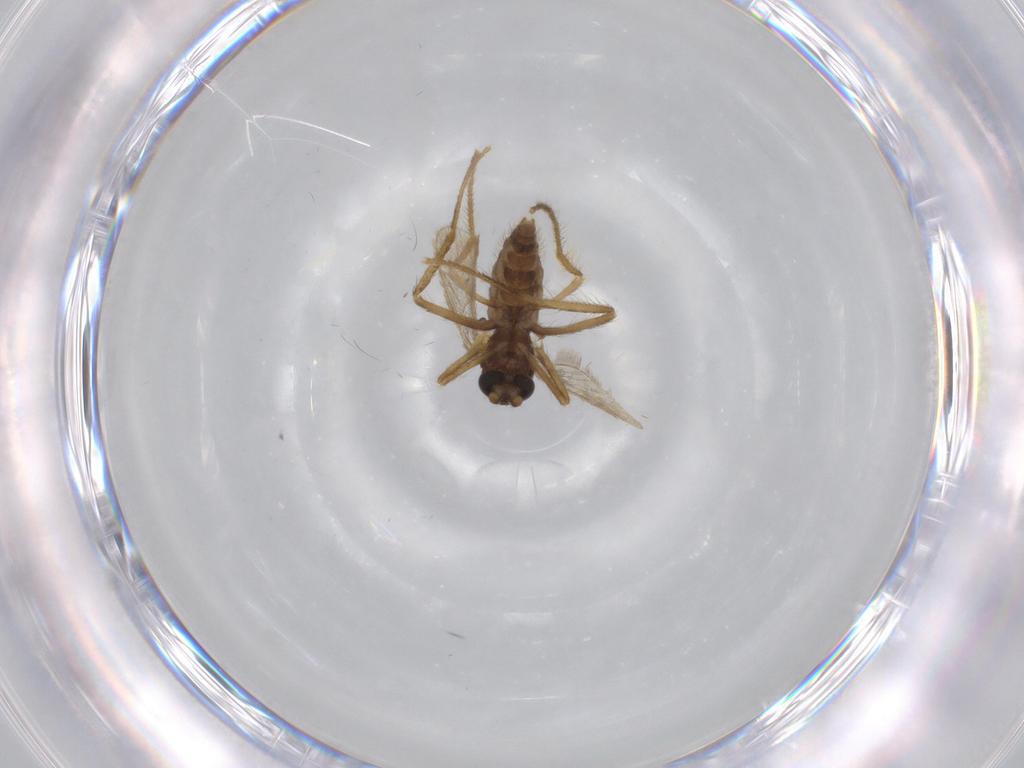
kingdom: Animalia
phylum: Arthropoda
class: Insecta
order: Diptera
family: Corethrellidae
